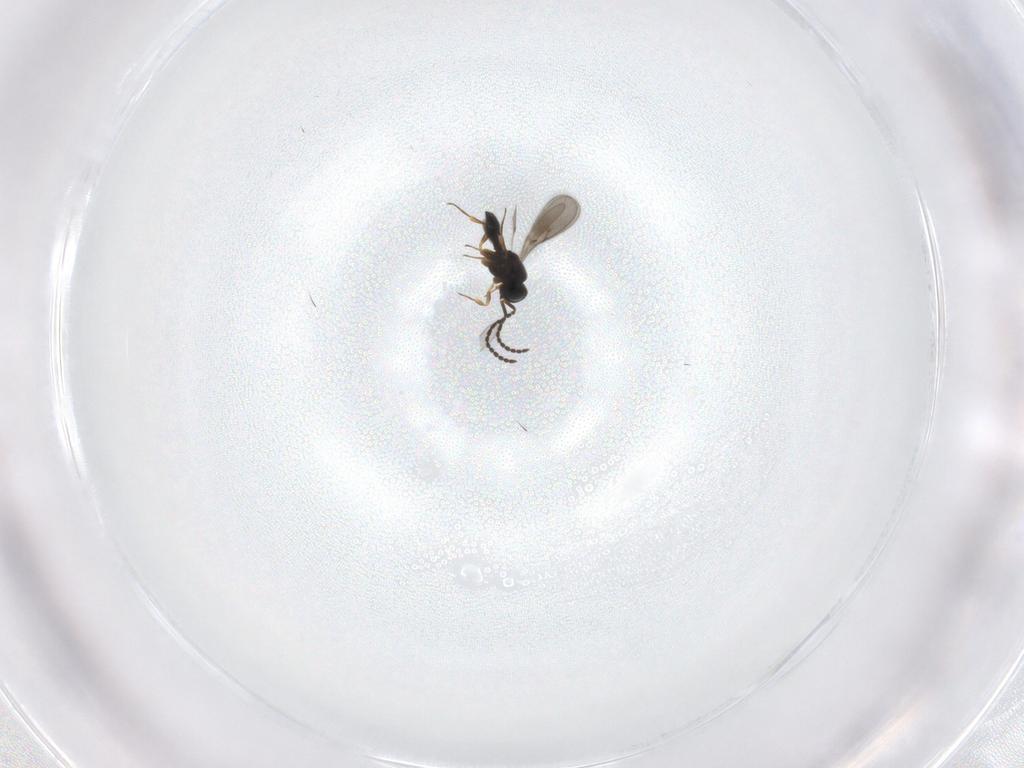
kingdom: Animalia
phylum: Arthropoda
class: Insecta
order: Hymenoptera
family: Scelionidae
